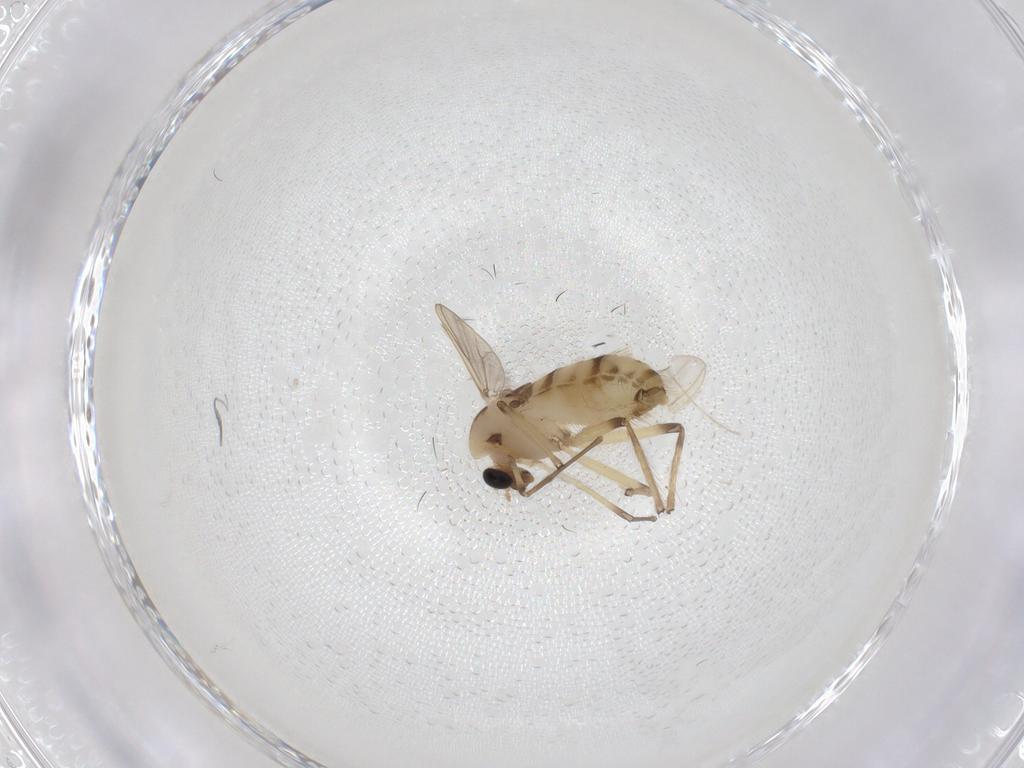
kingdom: Animalia
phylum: Arthropoda
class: Insecta
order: Diptera
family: Chironomidae
